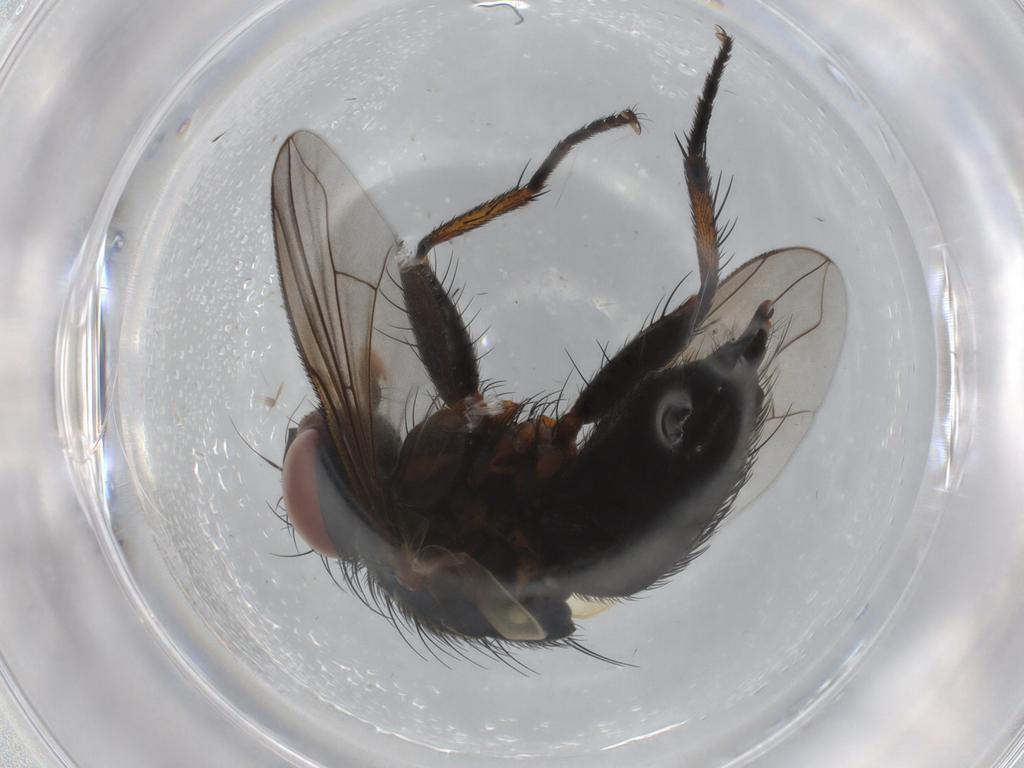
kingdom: Animalia
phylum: Arthropoda
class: Insecta
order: Diptera
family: Tachinidae
